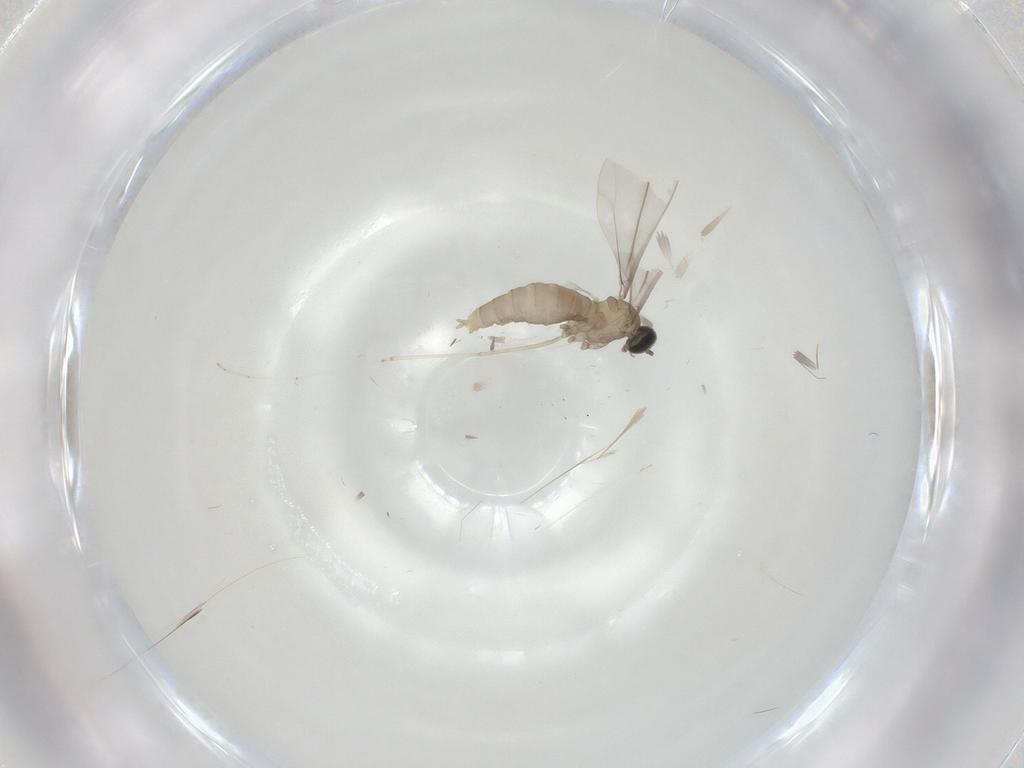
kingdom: Animalia
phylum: Arthropoda
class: Insecta
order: Diptera
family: Cecidomyiidae
